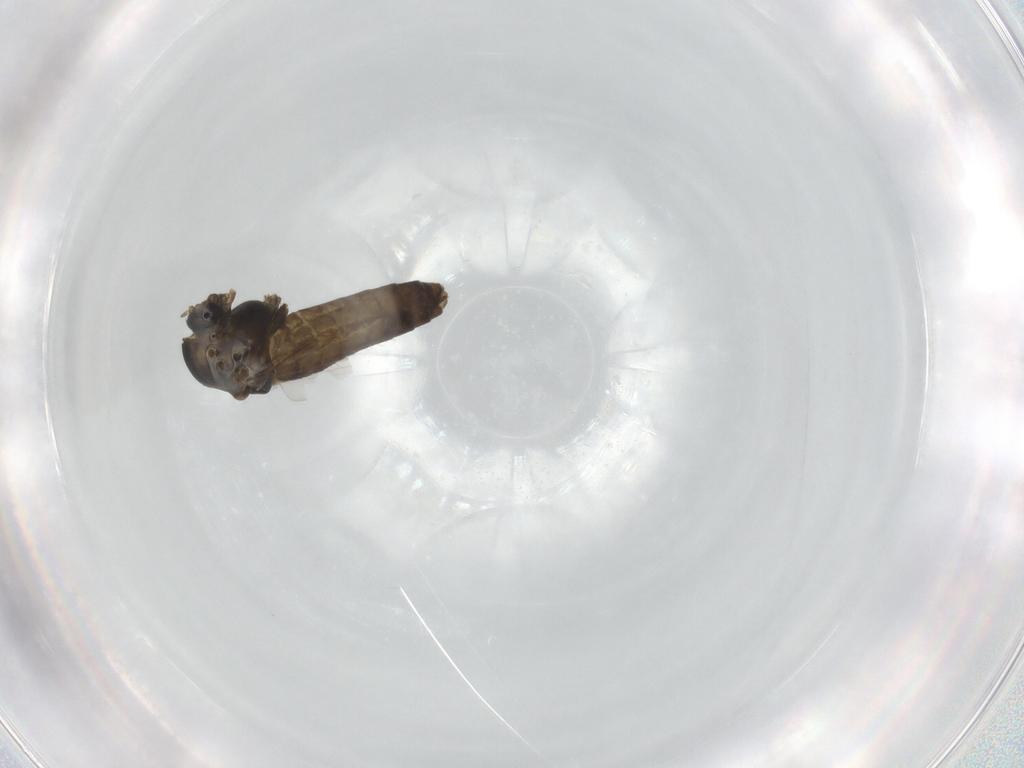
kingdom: Animalia
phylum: Arthropoda
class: Insecta
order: Diptera
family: Chironomidae
